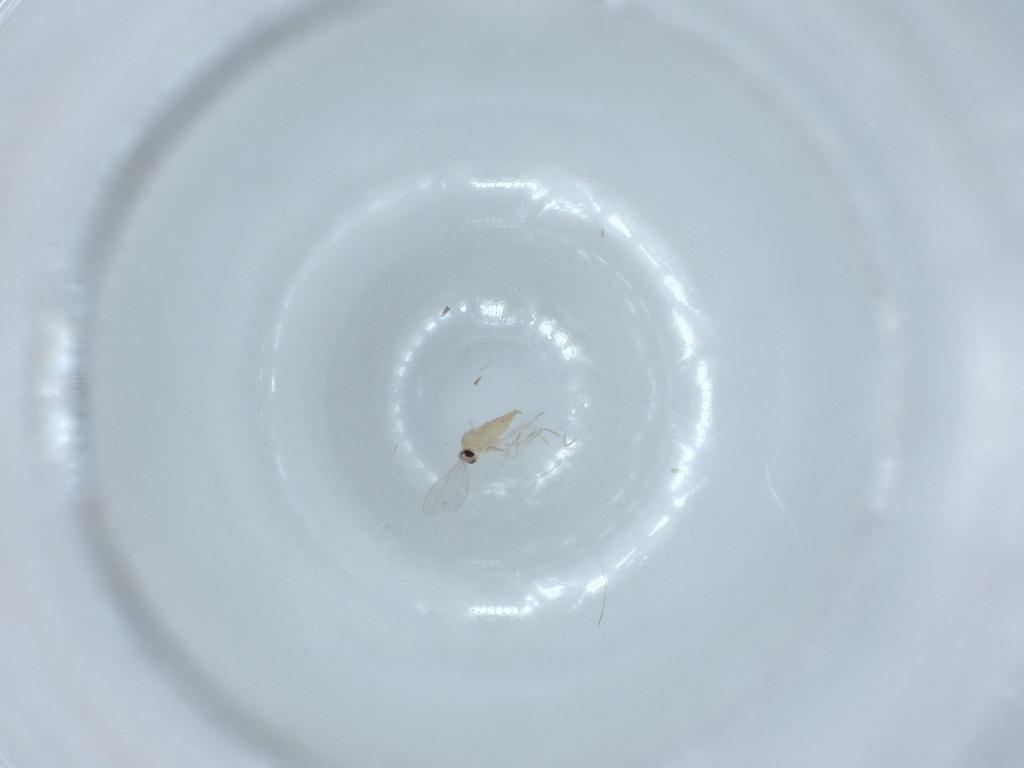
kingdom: Animalia
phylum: Arthropoda
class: Insecta
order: Diptera
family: Cecidomyiidae
